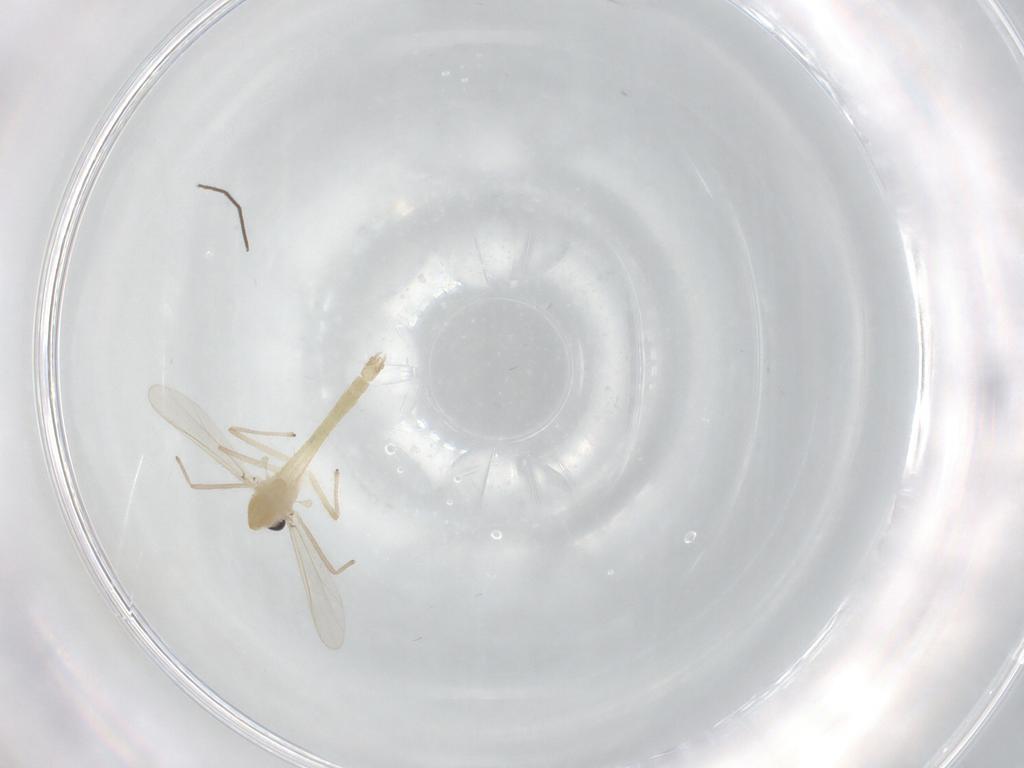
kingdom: Animalia
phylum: Arthropoda
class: Insecta
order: Diptera
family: Chironomidae
